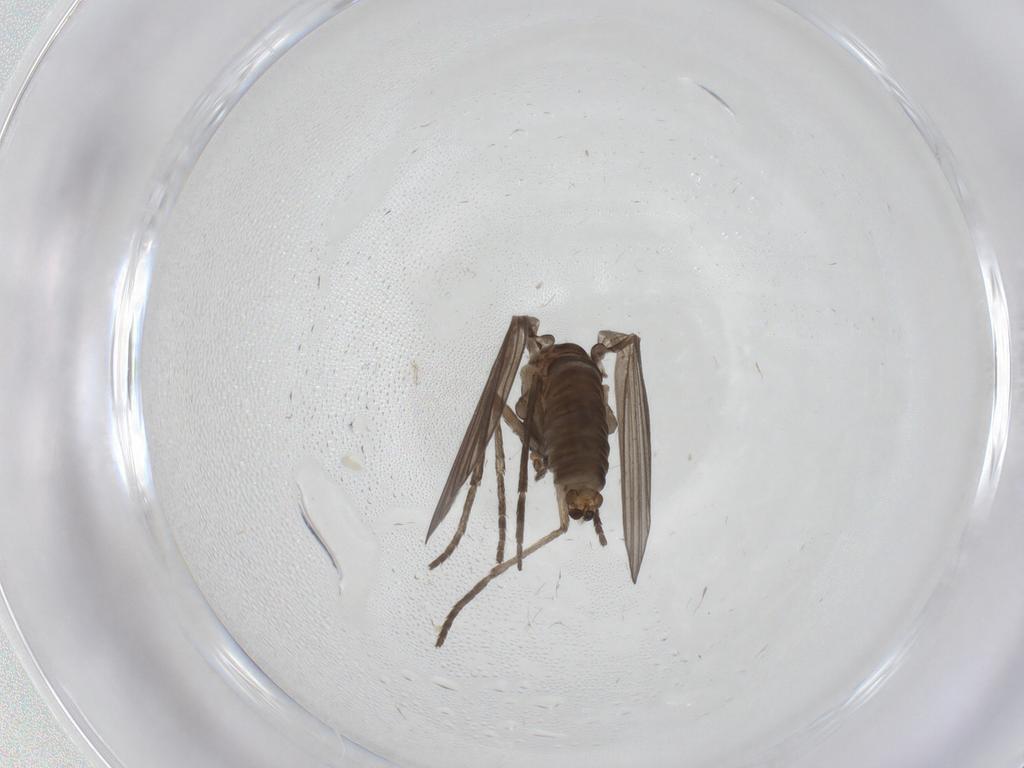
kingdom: Animalia
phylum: Arthropoda
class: Insecta
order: Diptera
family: Psychodidae
